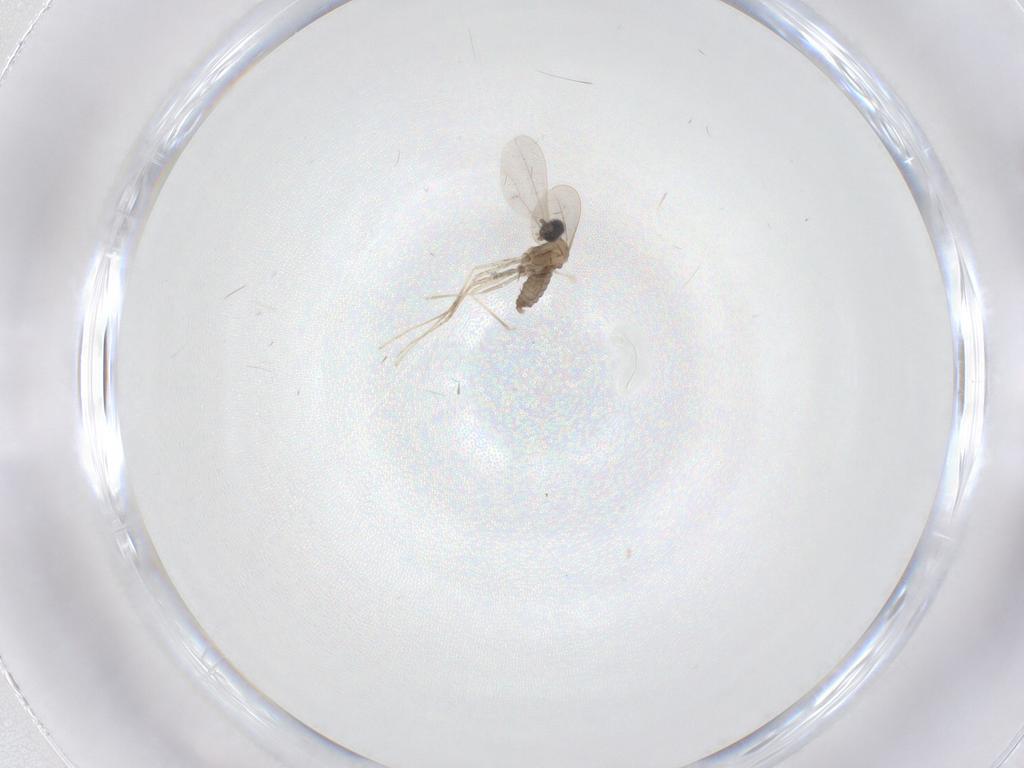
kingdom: Animalia
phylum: Arthropoda
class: Insecta
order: Diptera
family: Cecidomyiidae
